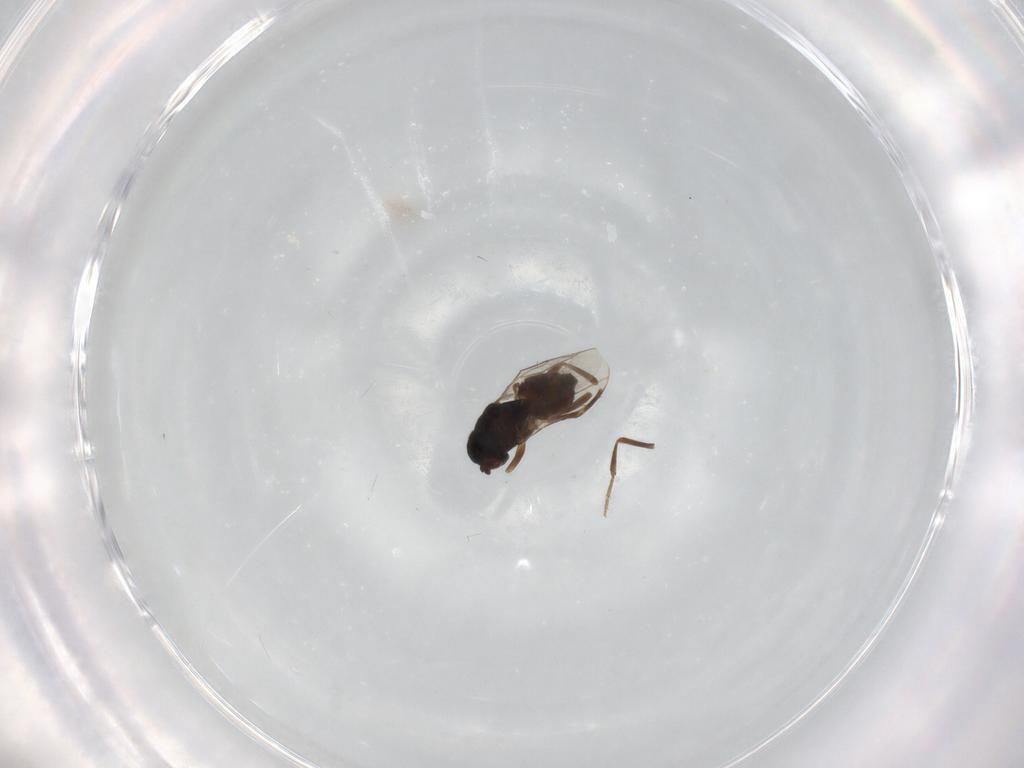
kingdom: Animalia
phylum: Arthropoda
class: Insecta
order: Diptera
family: Sphaeroceridae
